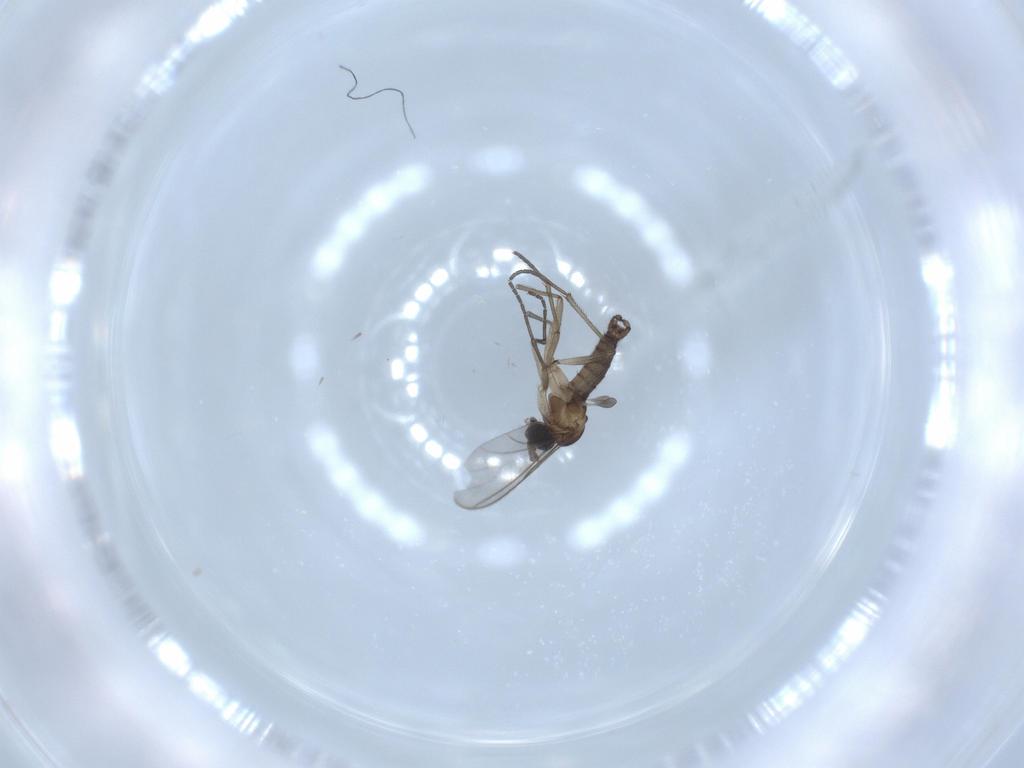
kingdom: Animalia
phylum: Arthropoda
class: Insecta
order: Diptera
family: Sciaridae
